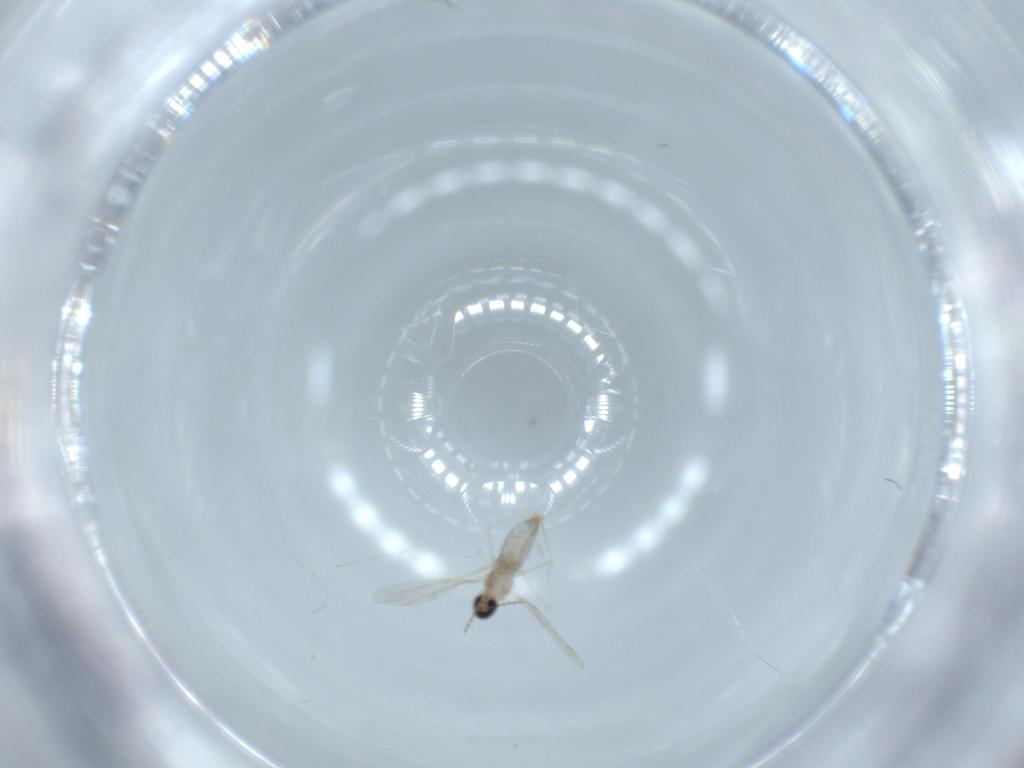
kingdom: Animalia
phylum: Arthropoda
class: Insecta
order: Diptera
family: Cecidomyiidae
